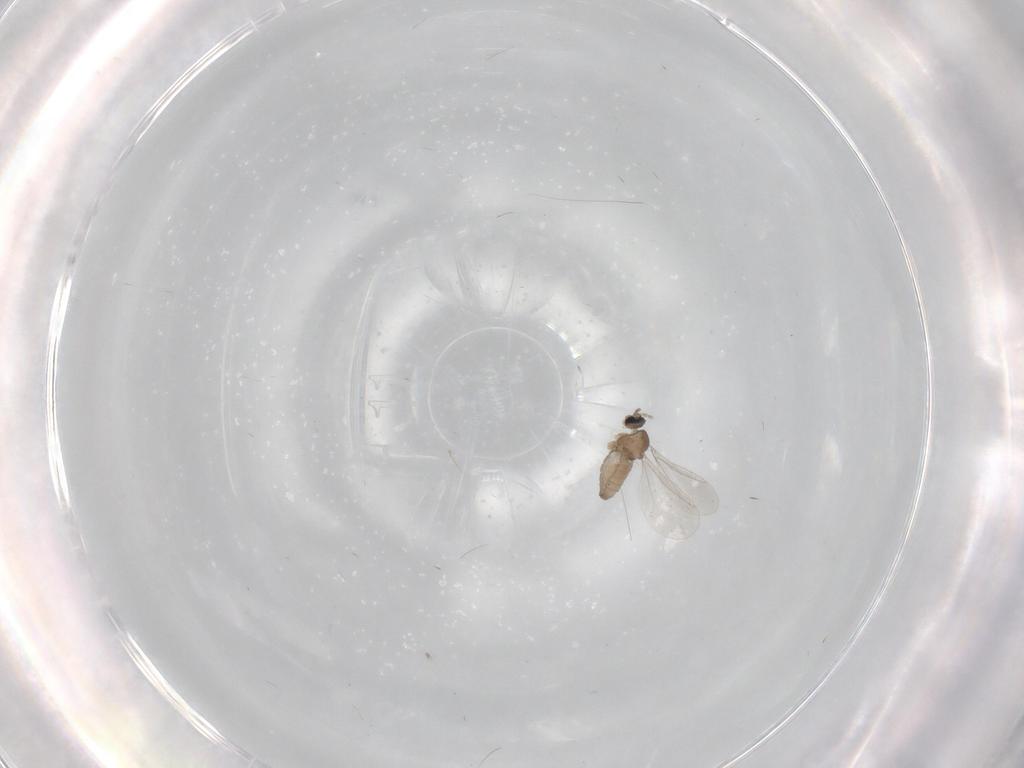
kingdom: Animalia
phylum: Arthropoda
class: Insecta
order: Diptera
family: Cecidomyiidae
